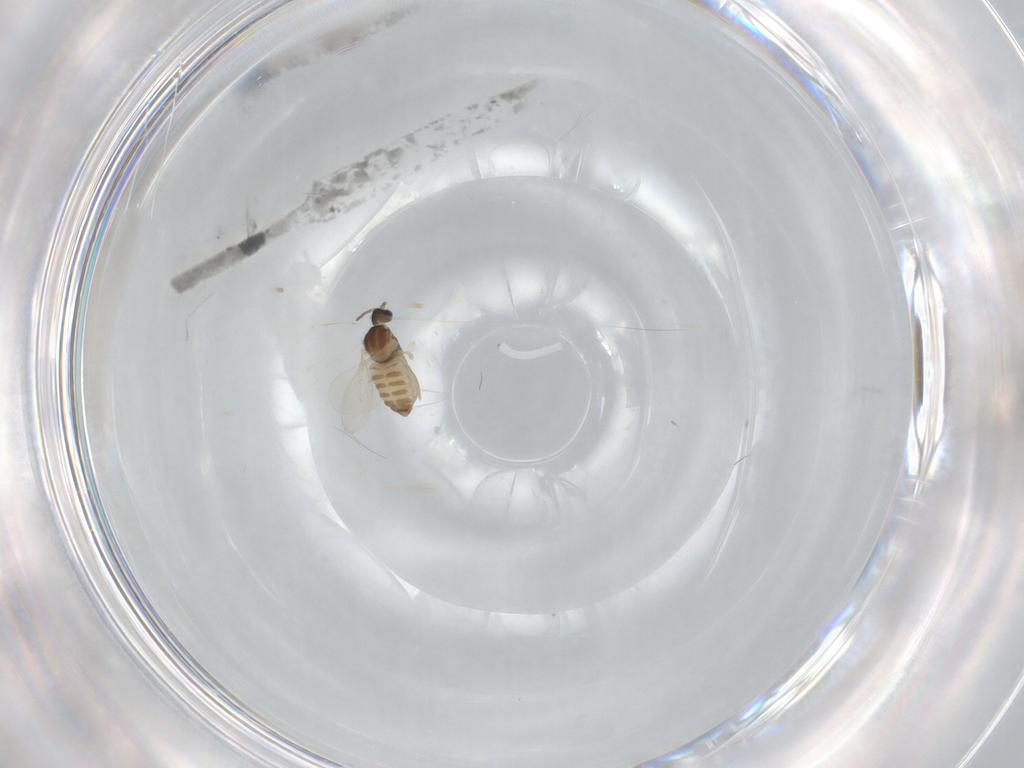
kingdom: Animalia
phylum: Arthropoda
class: Insecta
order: Diptera
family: Cecidomyiidae
